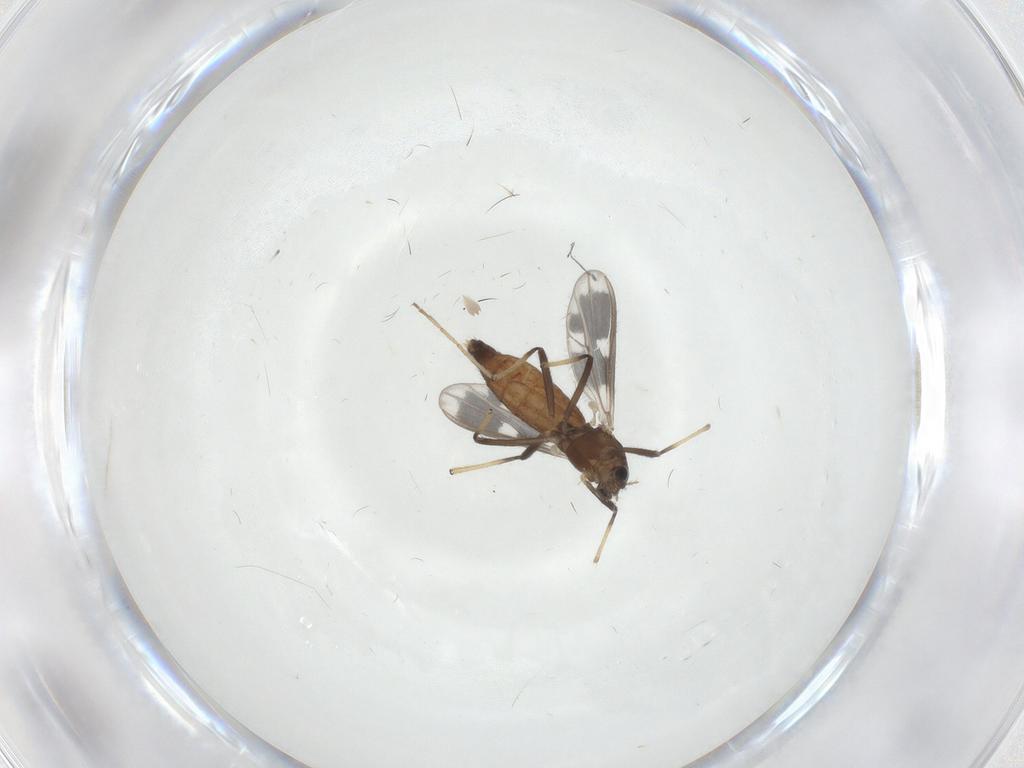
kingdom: Animalia
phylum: Arthropoda
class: Insecta
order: Diptera
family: Chironomidae
